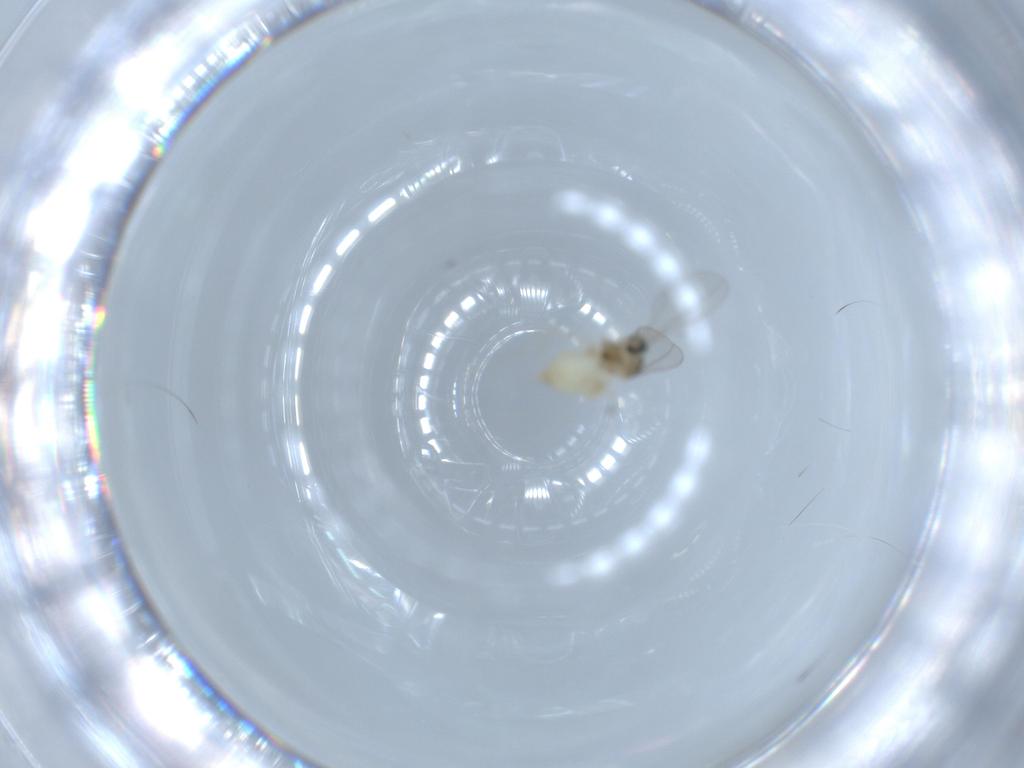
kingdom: Animalia
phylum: Arthropoda
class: Insecta
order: Diptera
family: Cecidomyiidae
